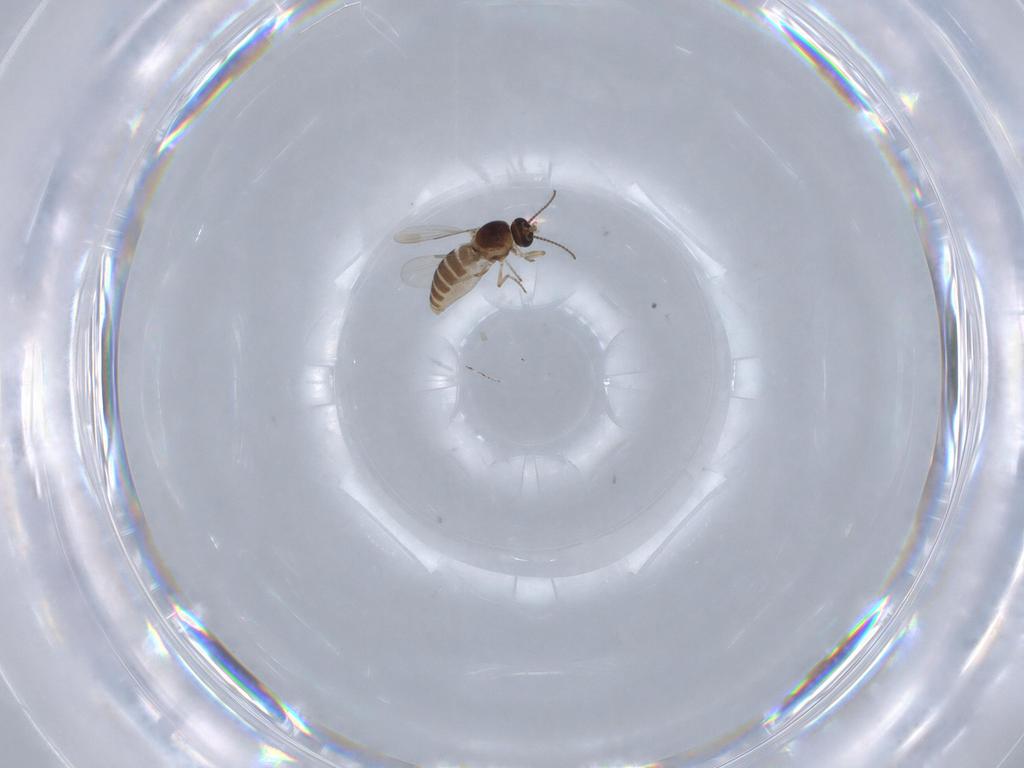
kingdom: Animalia
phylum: Arthropoda
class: Insecta
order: Diptera
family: Ceratopogonidae
